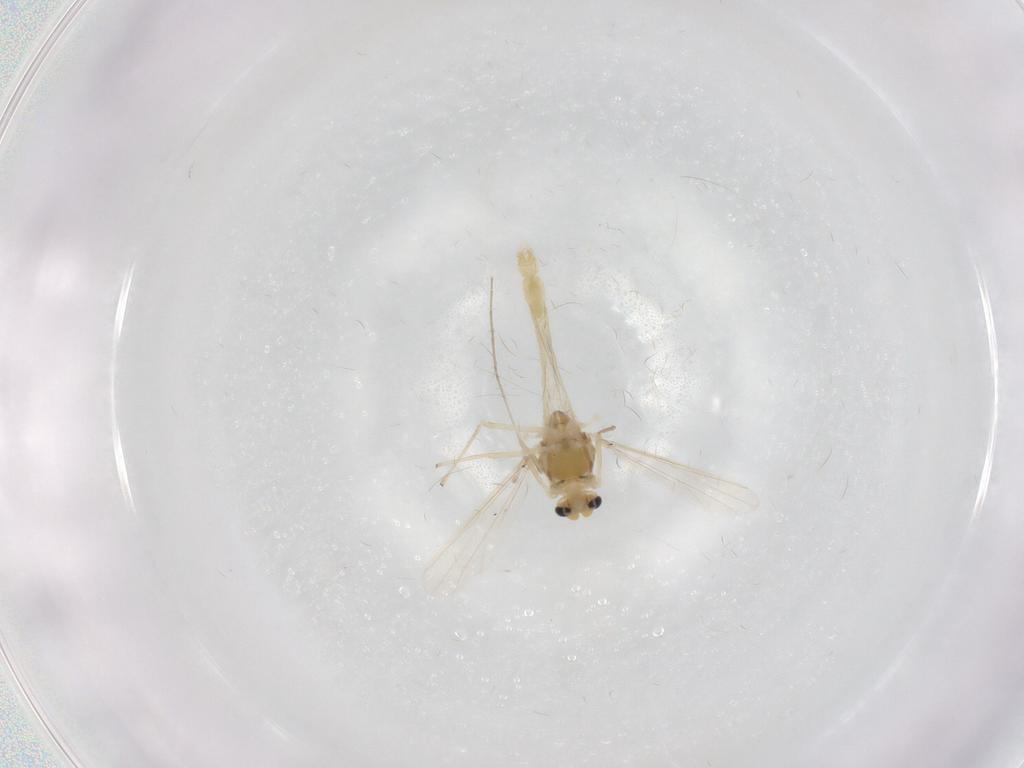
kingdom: Animalia
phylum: Arthropoda
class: Insecta
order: Diptera
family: Chironomidae
